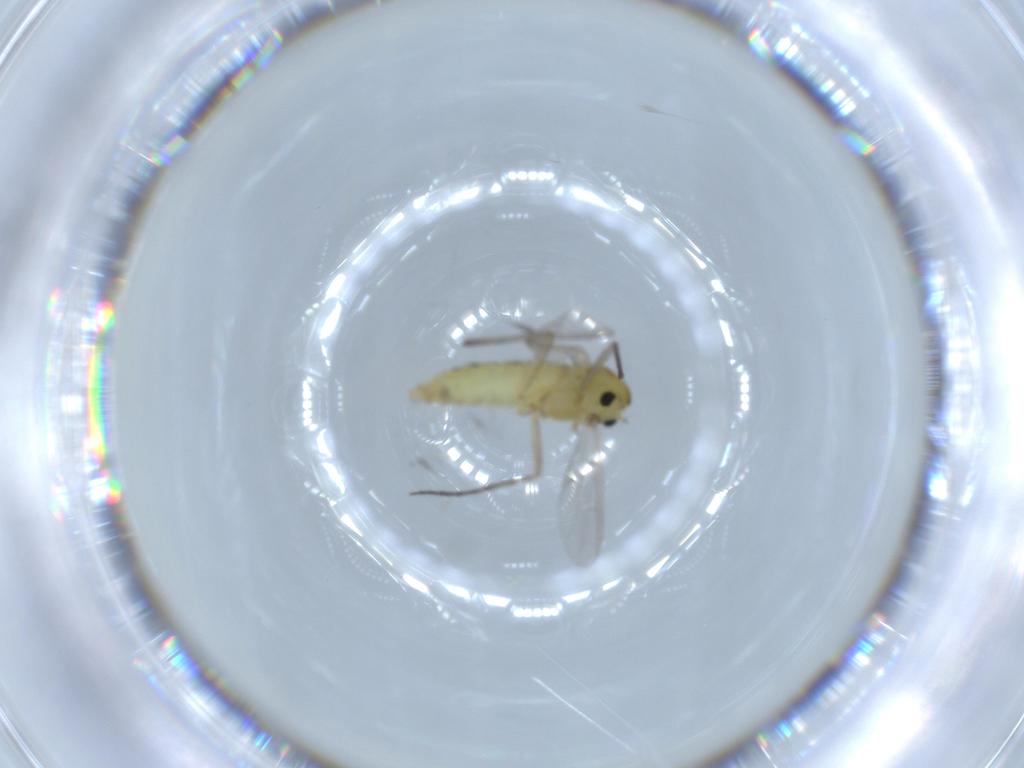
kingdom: Animalia
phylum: Arthropoda
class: Insecta
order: Diptera
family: Chironomidae
